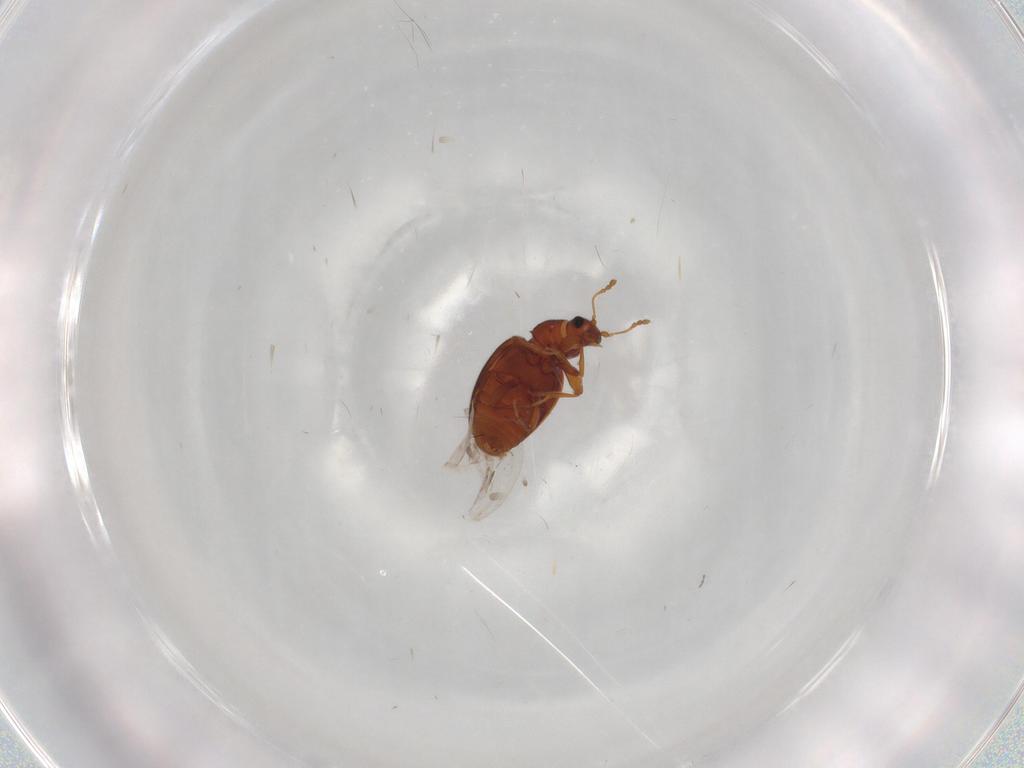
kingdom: Animalia
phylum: Arthropoda
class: Insecta
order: Coleoptera
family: Latridiidae
